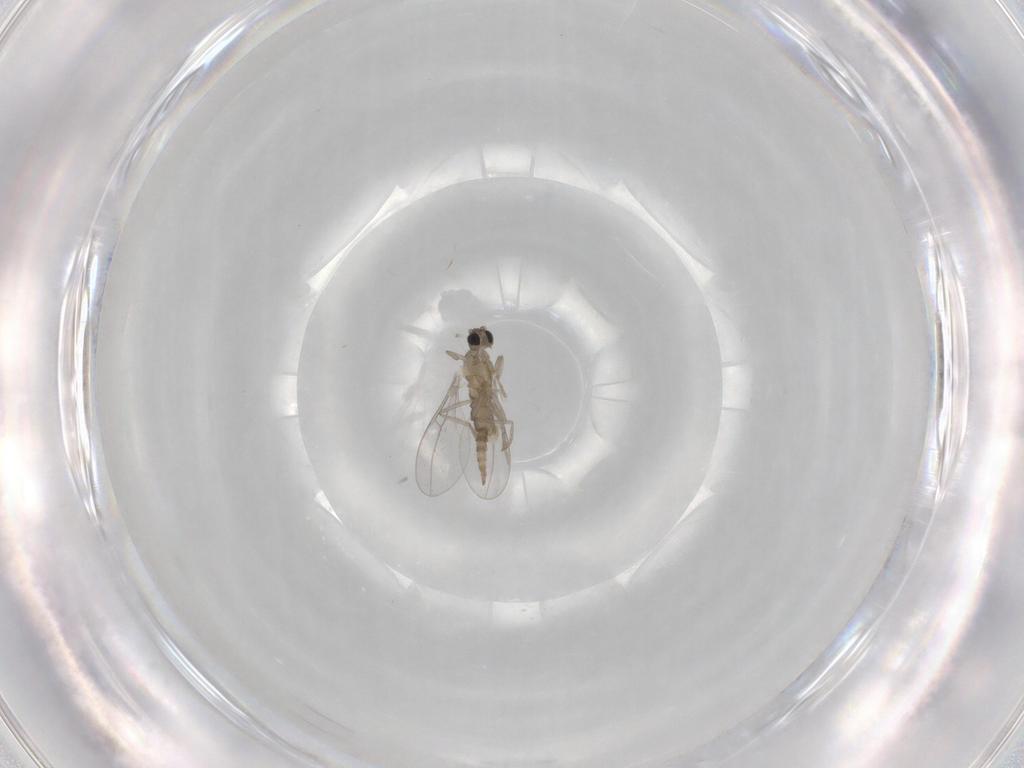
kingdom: Animalia
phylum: Arthropoda
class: Insecta
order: Diptera
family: Cecidomyiidae
